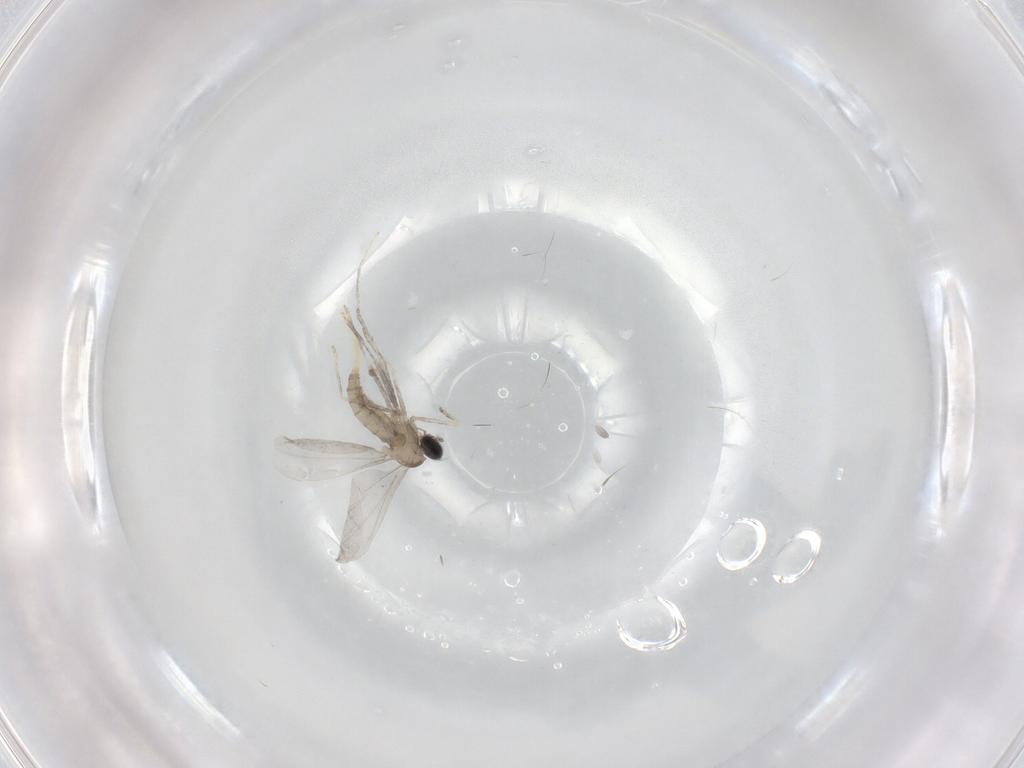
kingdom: Animalia
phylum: Arthropoda
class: Insecta
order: Diptera
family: Cecidomyiidae
